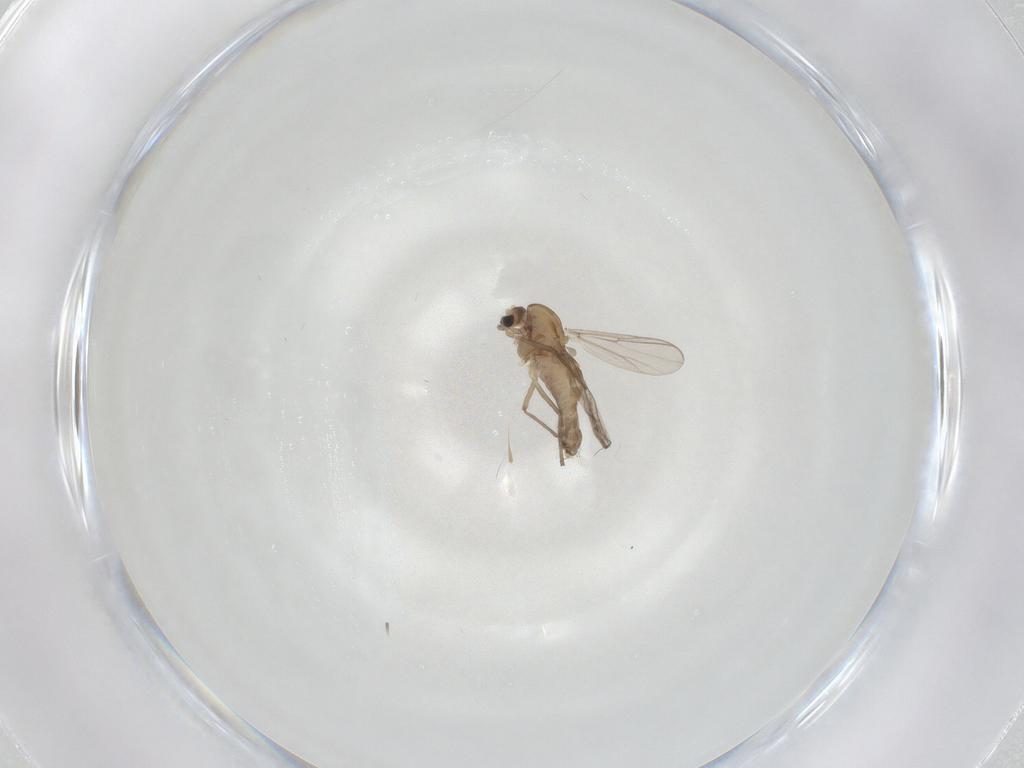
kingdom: Animalia
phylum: Arthropoda
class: Insecta
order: Diptera
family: Chironomidae
